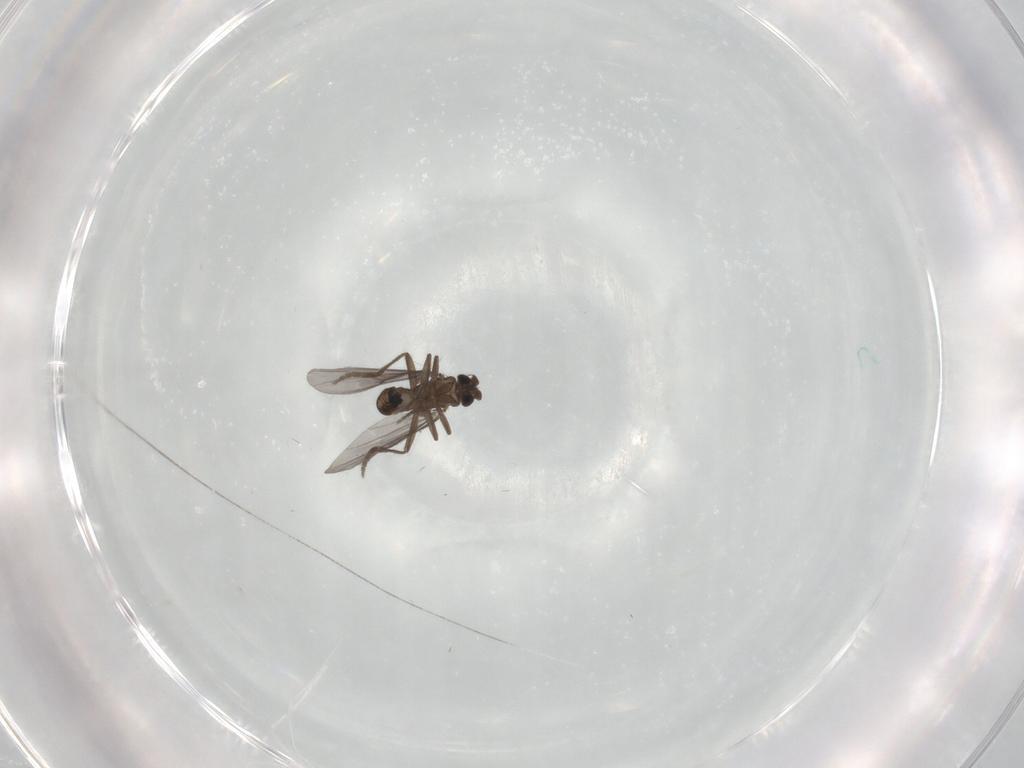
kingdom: Animalia
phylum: Arthropoda
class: Insecta
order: Diptera
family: Phoridae
